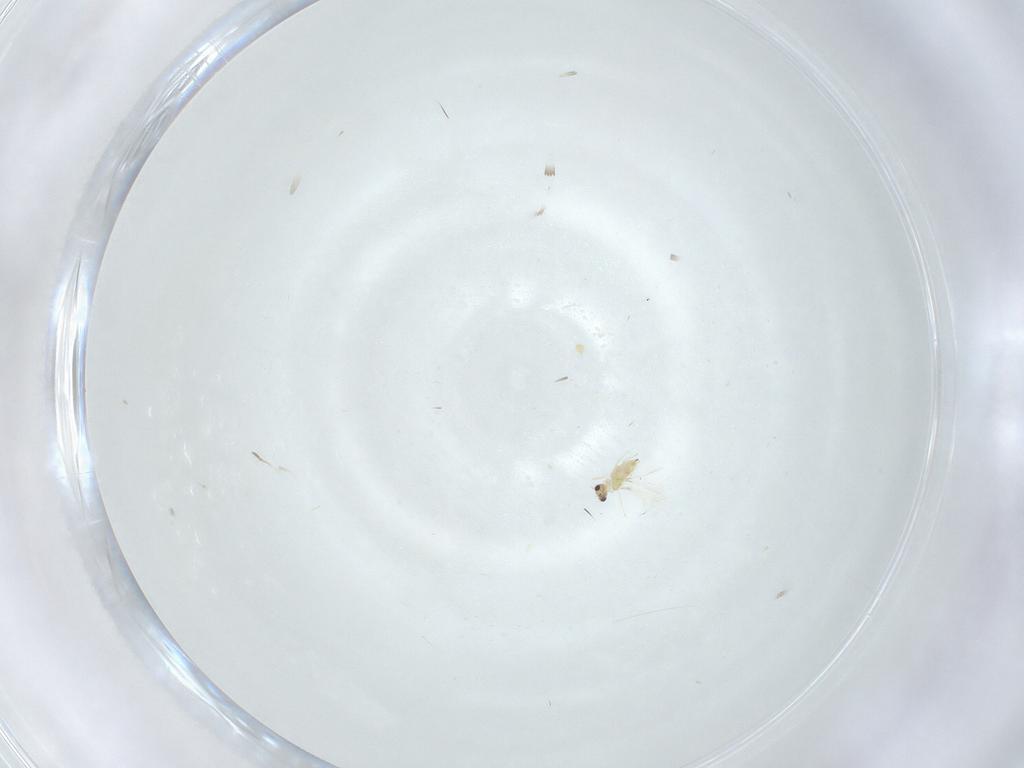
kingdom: Animalia
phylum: Arthropoda
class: Insecta
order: Hymenoptera
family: Mymaridae
